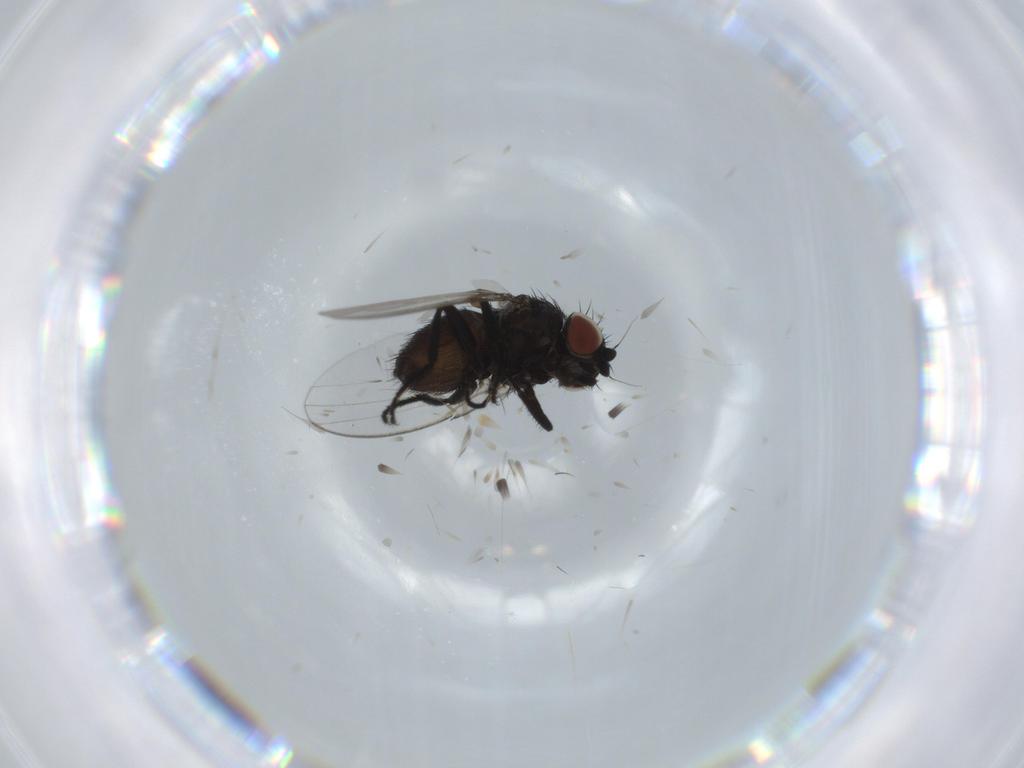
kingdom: Animalia
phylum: Arthropoda
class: Insecta
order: Diptera
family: Milichiidae
